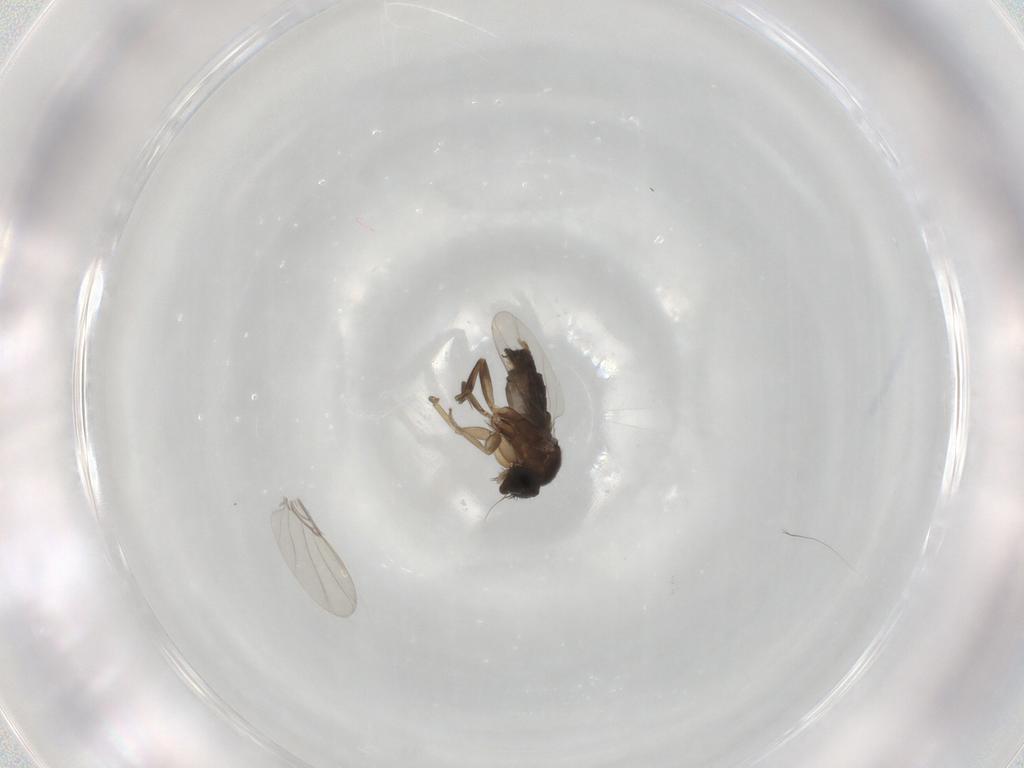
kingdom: Animalia
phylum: Arthropoda
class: Insecta
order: Diptera
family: Phoridae
